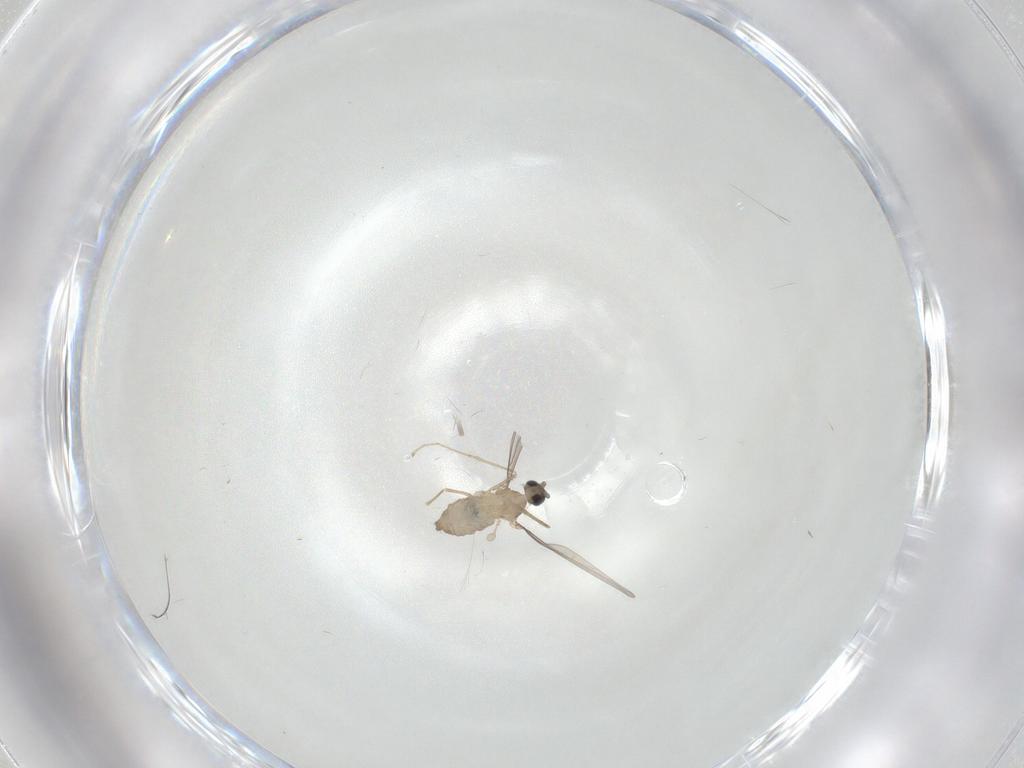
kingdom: Animalia
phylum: Arthropoda
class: Insecta
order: Diptera
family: Cecidomyiidae
